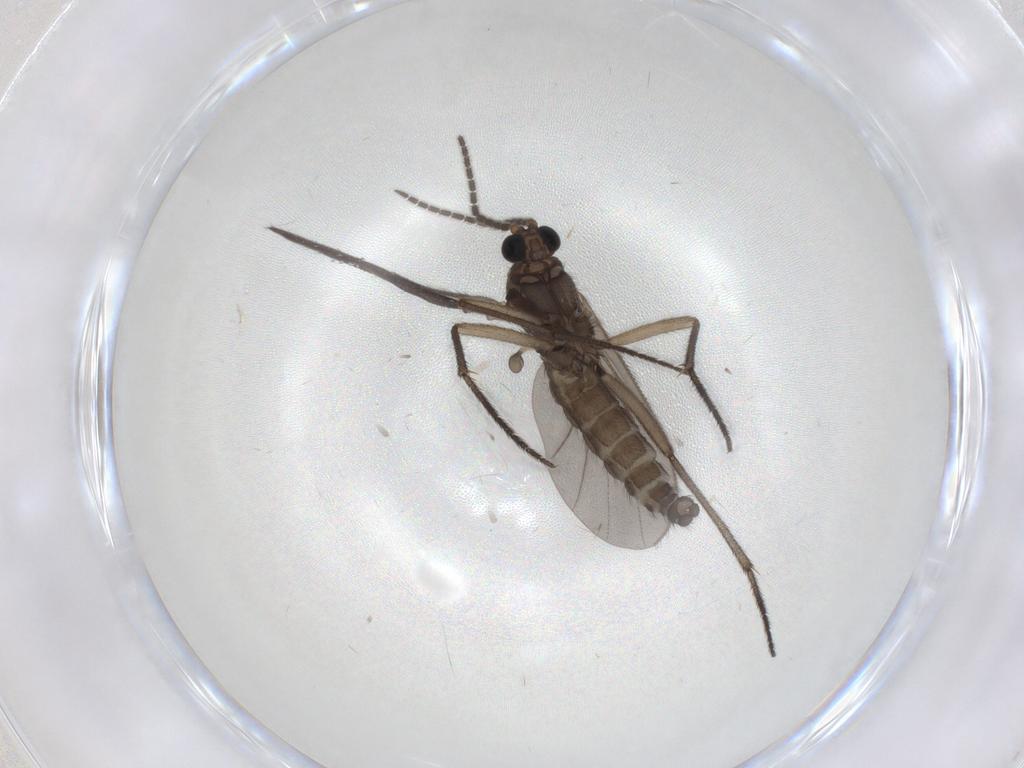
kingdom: Animalia
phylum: Arthropoda
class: Insecta
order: Diptera
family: Sciaridae
